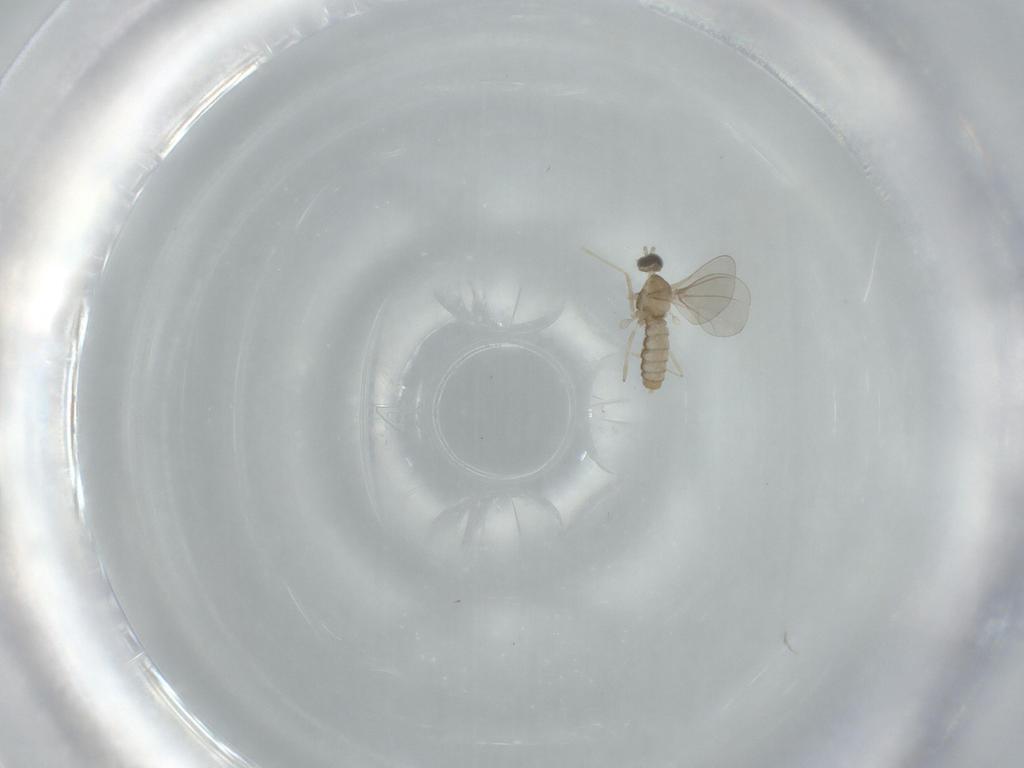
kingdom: Animalia
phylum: Arthropoda
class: Insecta
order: Diptera
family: Cecidomyiidae
